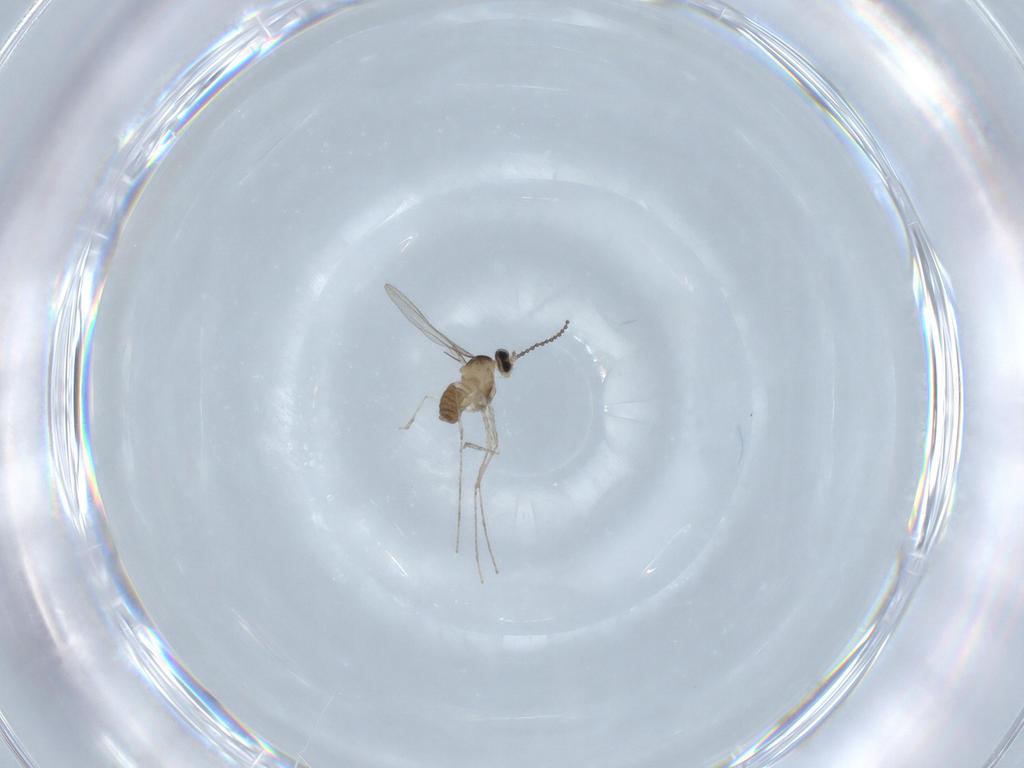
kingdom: Animalia
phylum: Arthropoda
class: Insecta
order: Diptera
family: Cecidomyiidae
